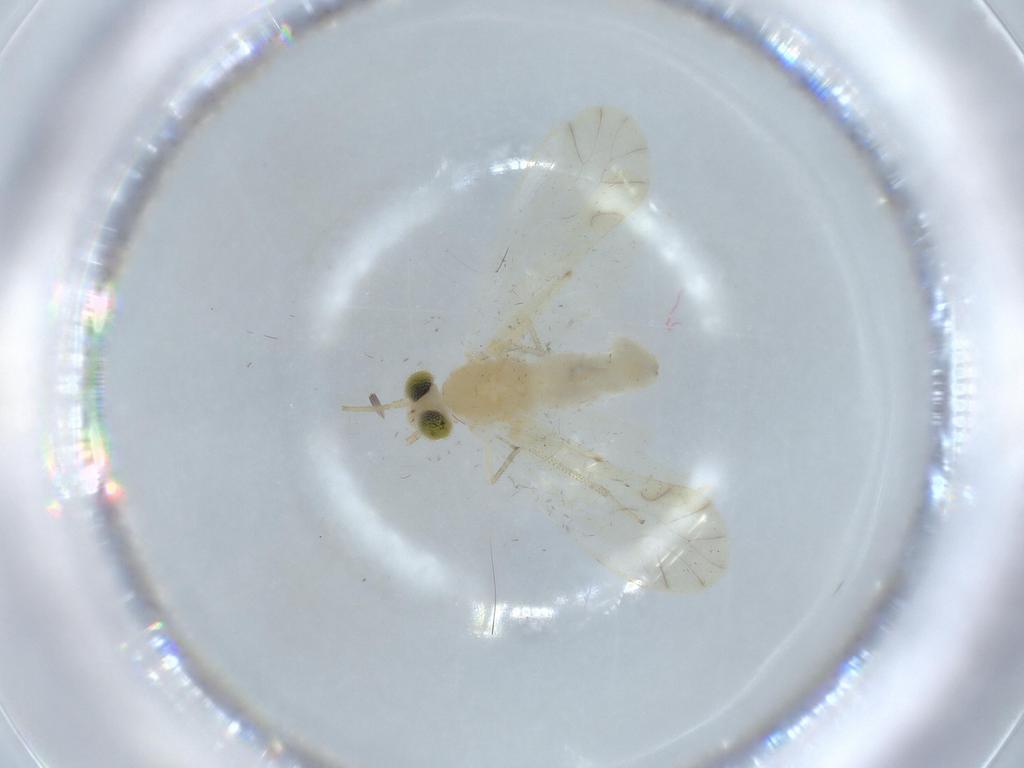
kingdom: Animalia
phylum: Arthropoda
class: Insecta
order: Psocodea
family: Caeciliusidae
